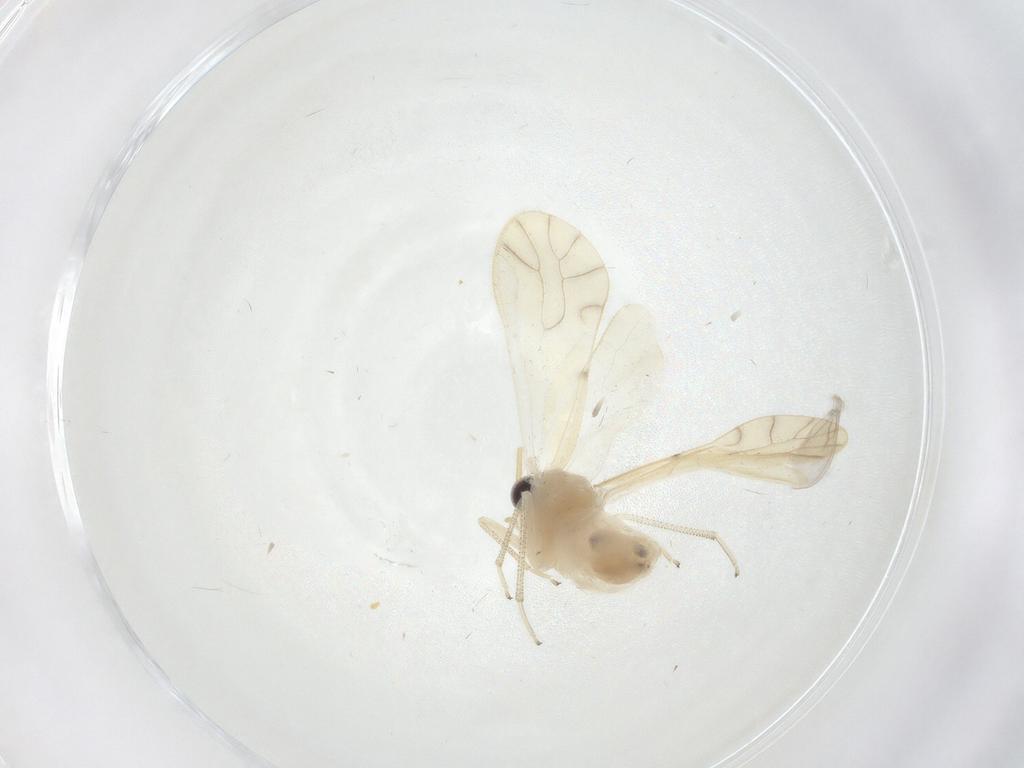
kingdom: Animalia
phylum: Arthropoda
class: Insecta
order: Psocodea
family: Caeciliusidae
